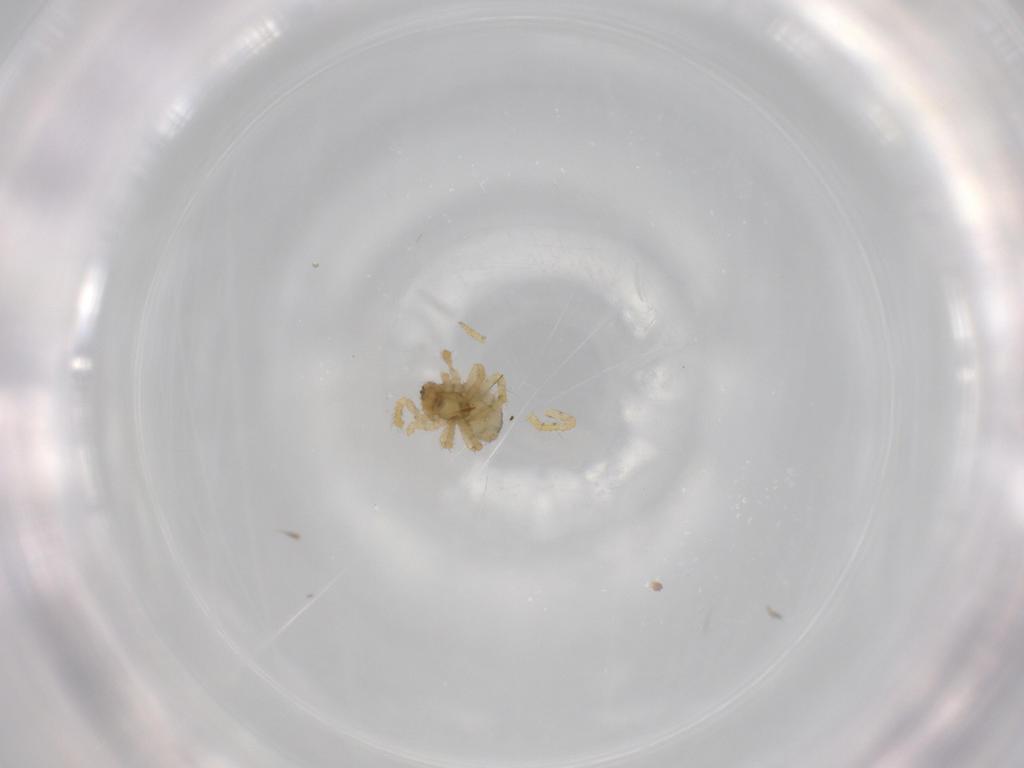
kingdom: Animalia
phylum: Arthropoda
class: Arachnida
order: Araneae
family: Theridiidae
